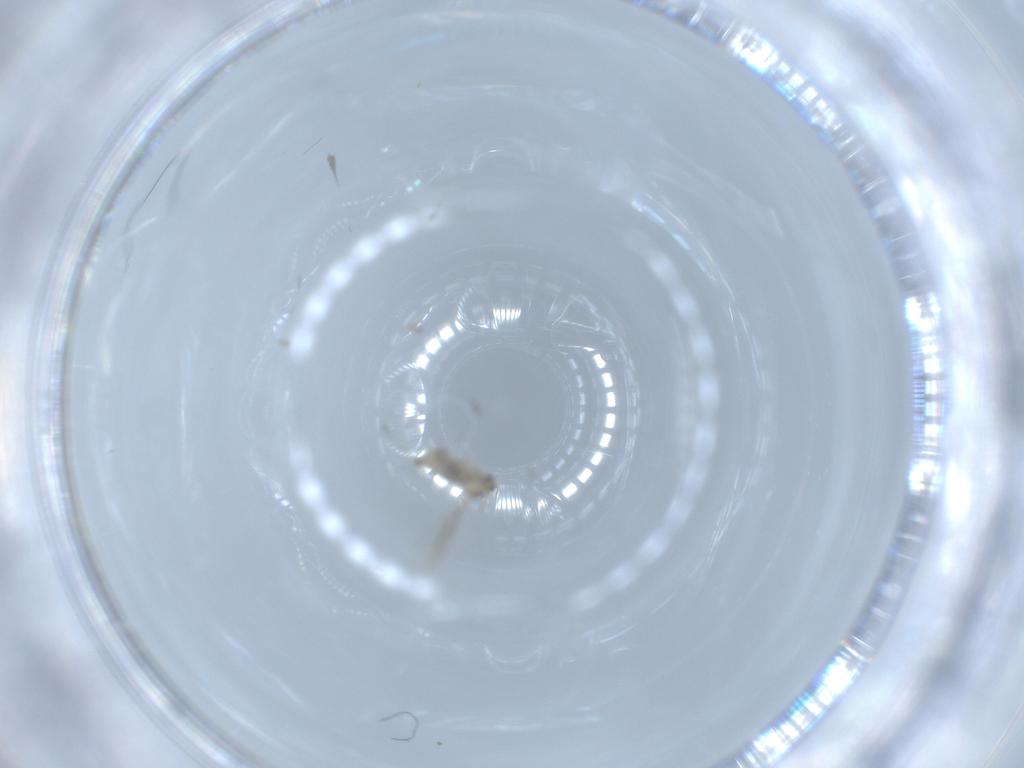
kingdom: Animalia
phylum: Arthropoda
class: Insecta
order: Diptera
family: Cecidomyiidae
